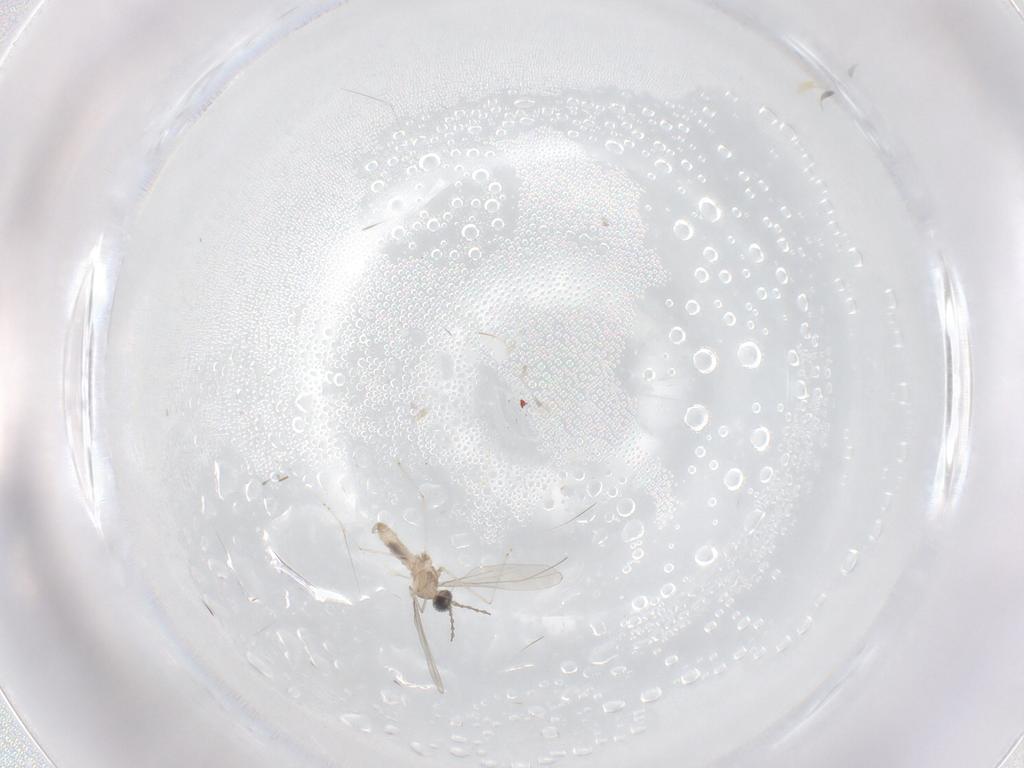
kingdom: Animalia
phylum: Arthropoda
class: Insecta
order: Diptera
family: Cecidomyiidae
